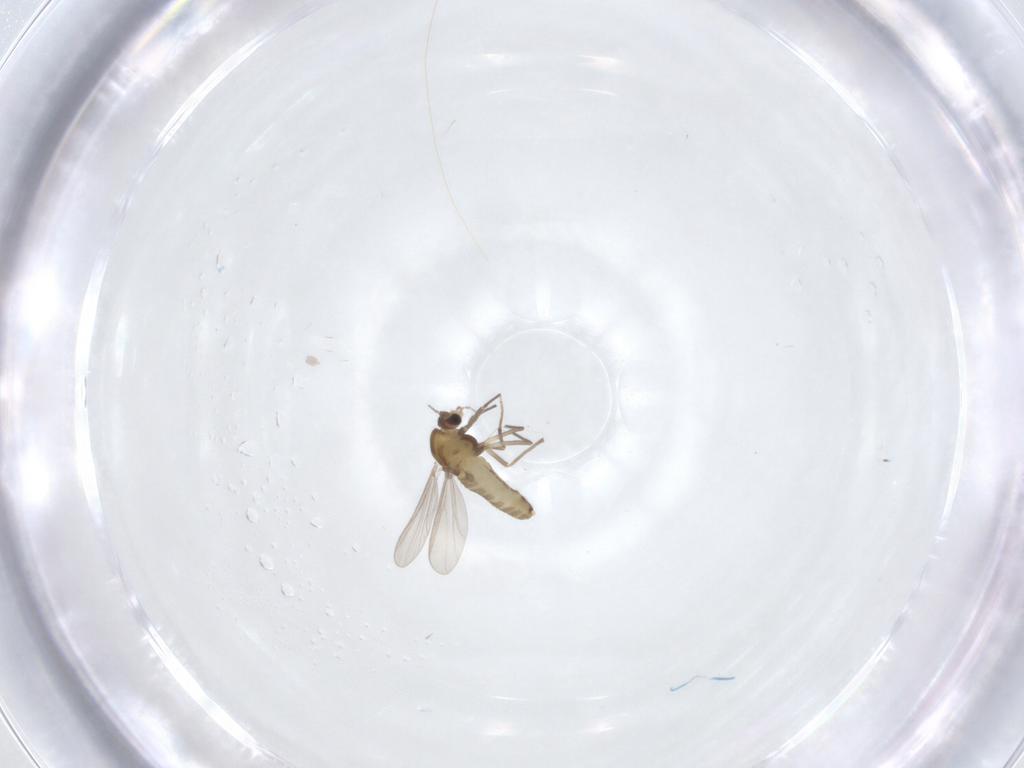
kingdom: Animalia
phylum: Arthropoda
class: Insecta
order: Diptera
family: Chironomidae
